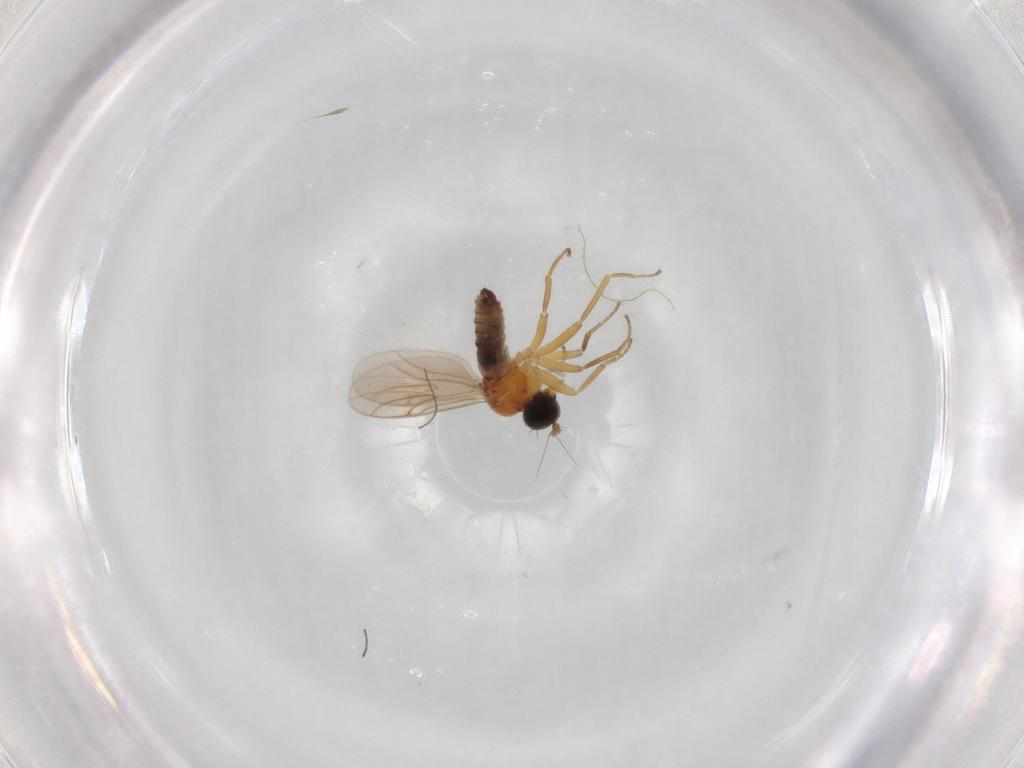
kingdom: Animalia
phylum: Arthropoda
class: Insecta
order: Diptera
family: Hybotidae
